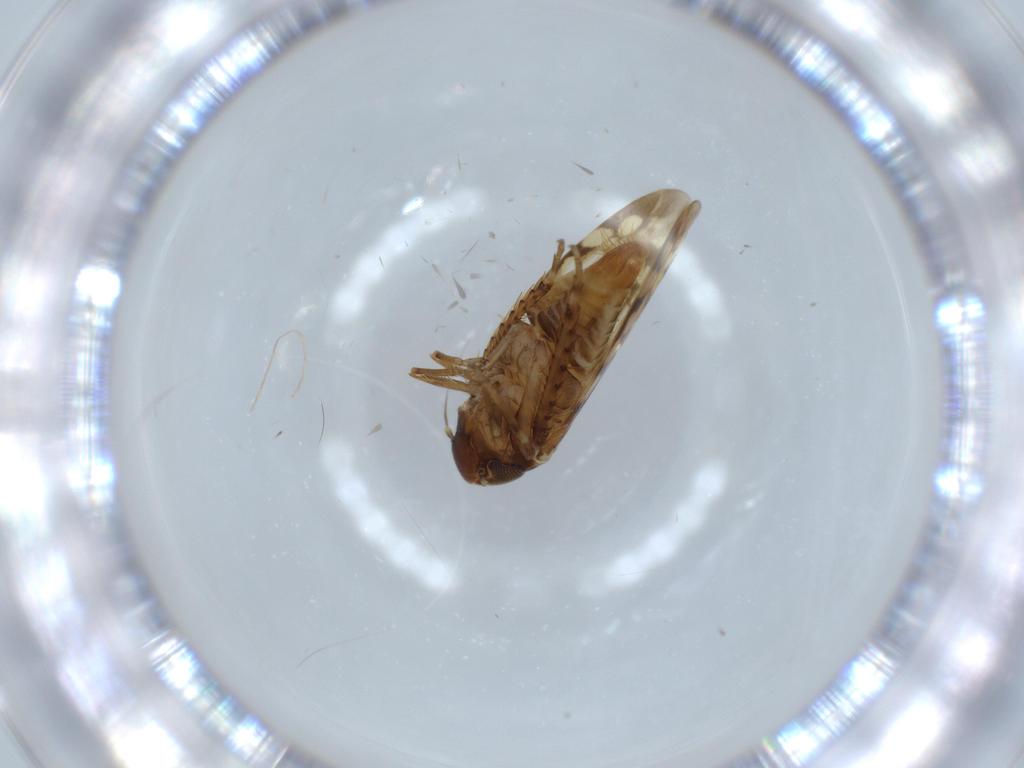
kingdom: Animalia
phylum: Arthropoda
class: Insecta
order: Hemiptera
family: Cicadellidae
